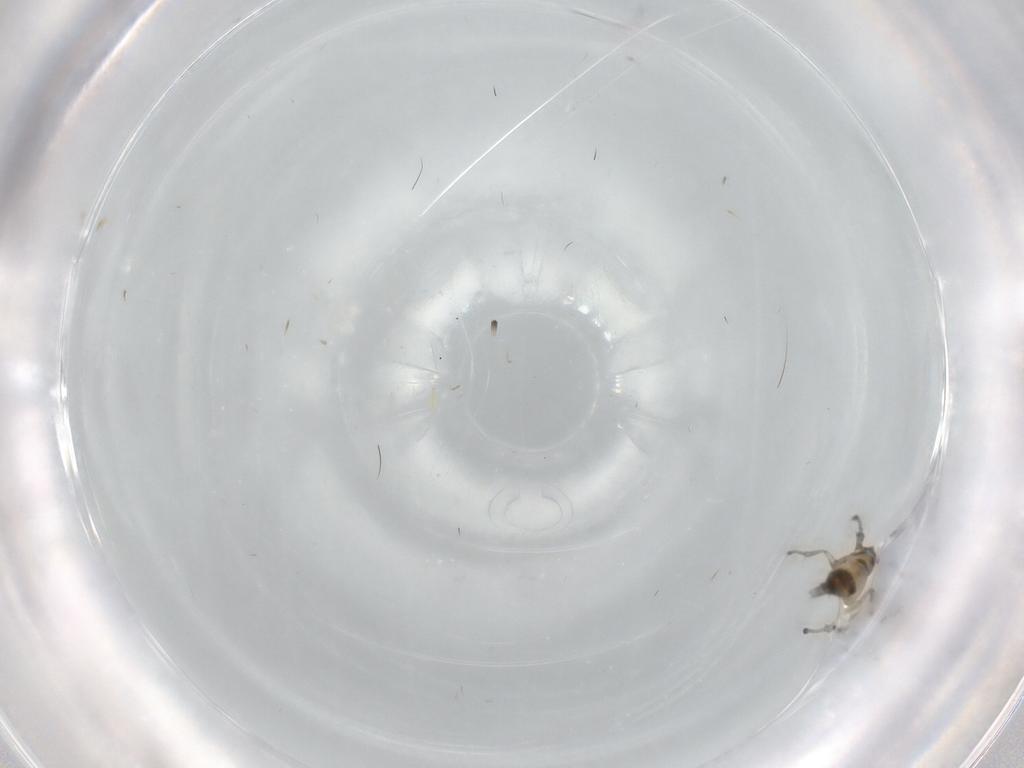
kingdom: Animalia
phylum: Arthropoda
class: Insecta
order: Hymenoptera
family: Torymidae
